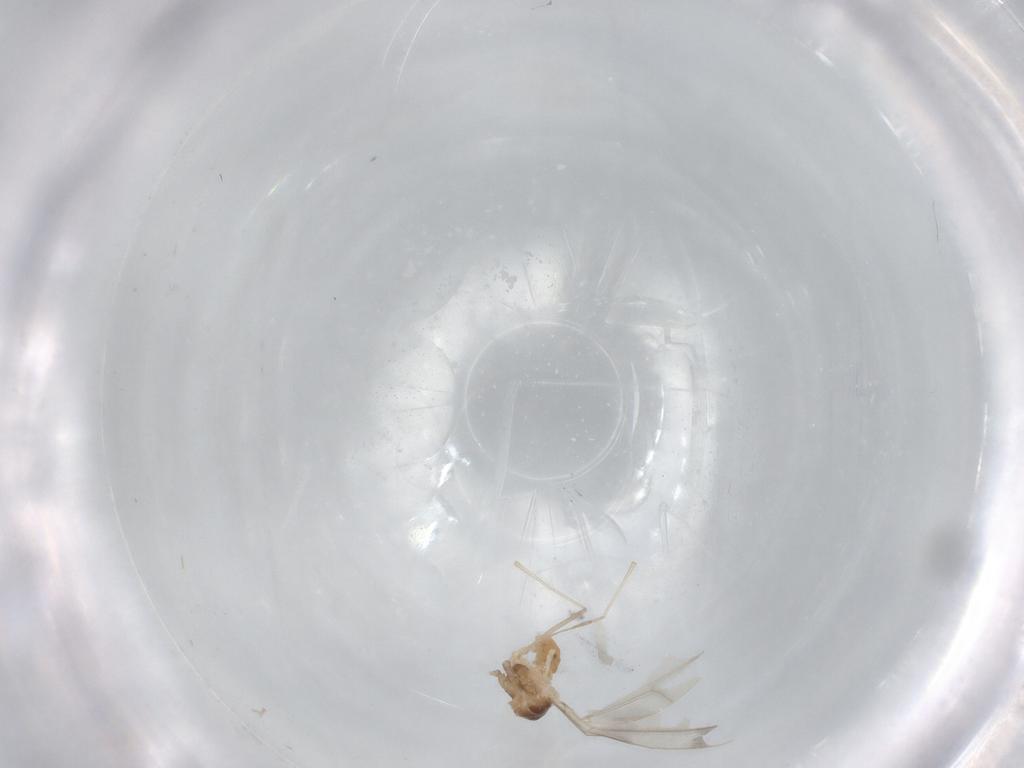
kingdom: Animalia
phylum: Arthropoda
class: Insecta
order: Diptera
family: Cecidomyiidae
